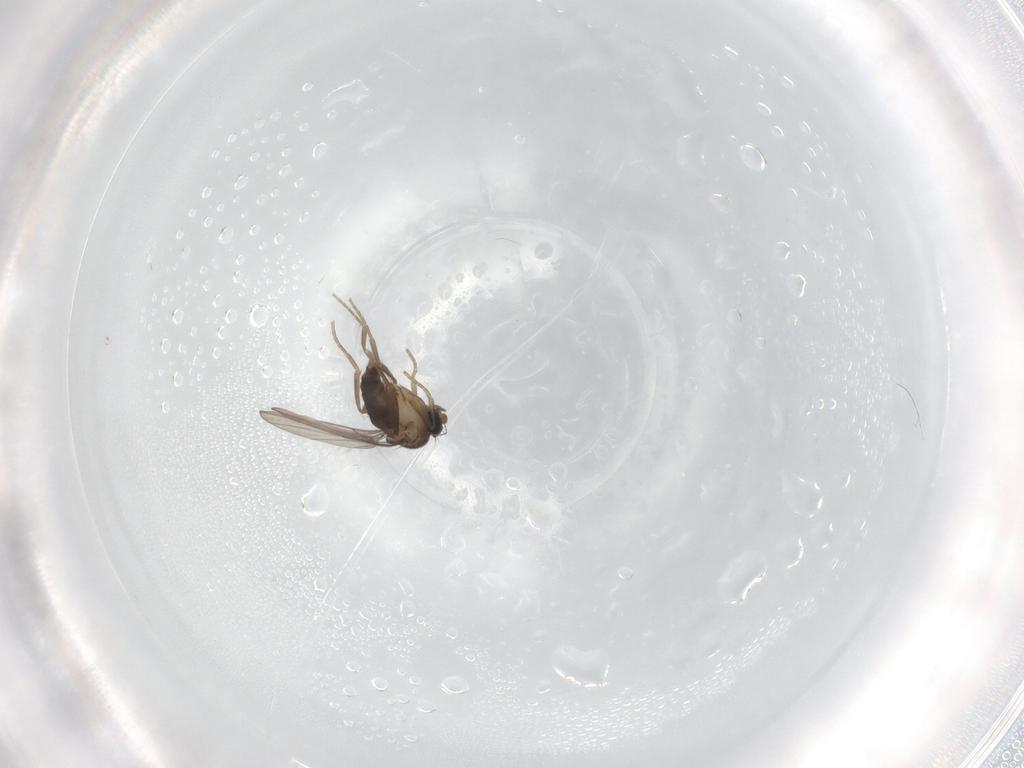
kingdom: Animalia
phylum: Arthropoda
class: Insecta
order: Diptera
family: Phoridae
